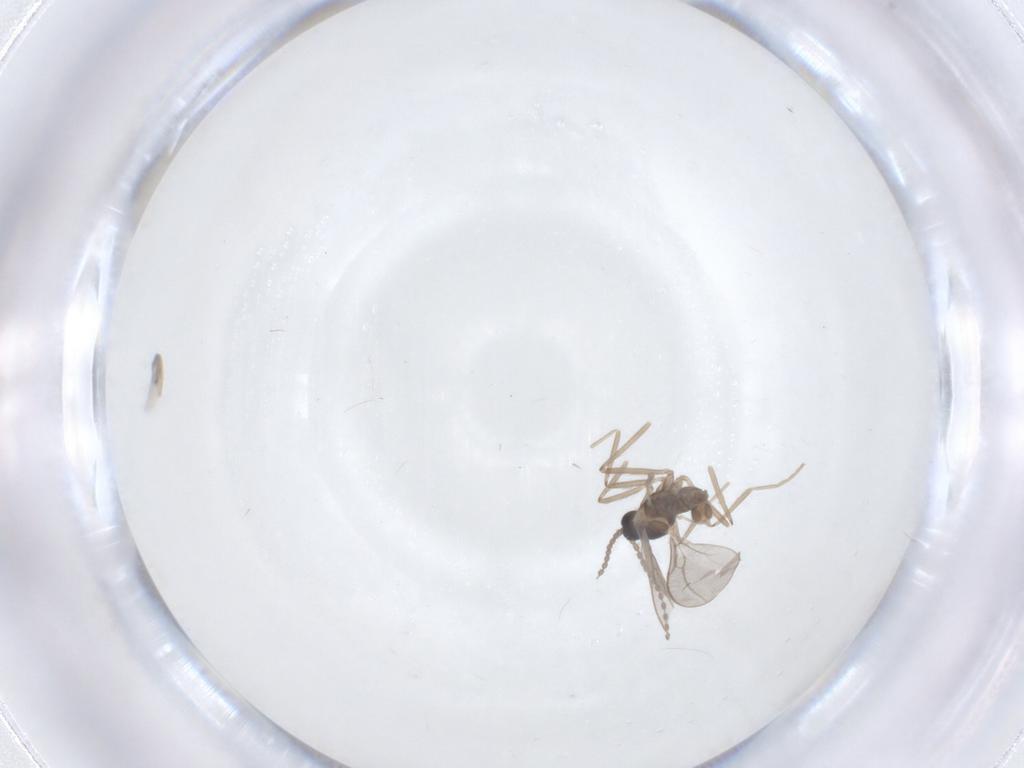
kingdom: Animalia
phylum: Arthropoda
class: Insecta
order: Diptera
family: Cecidomyiidae
